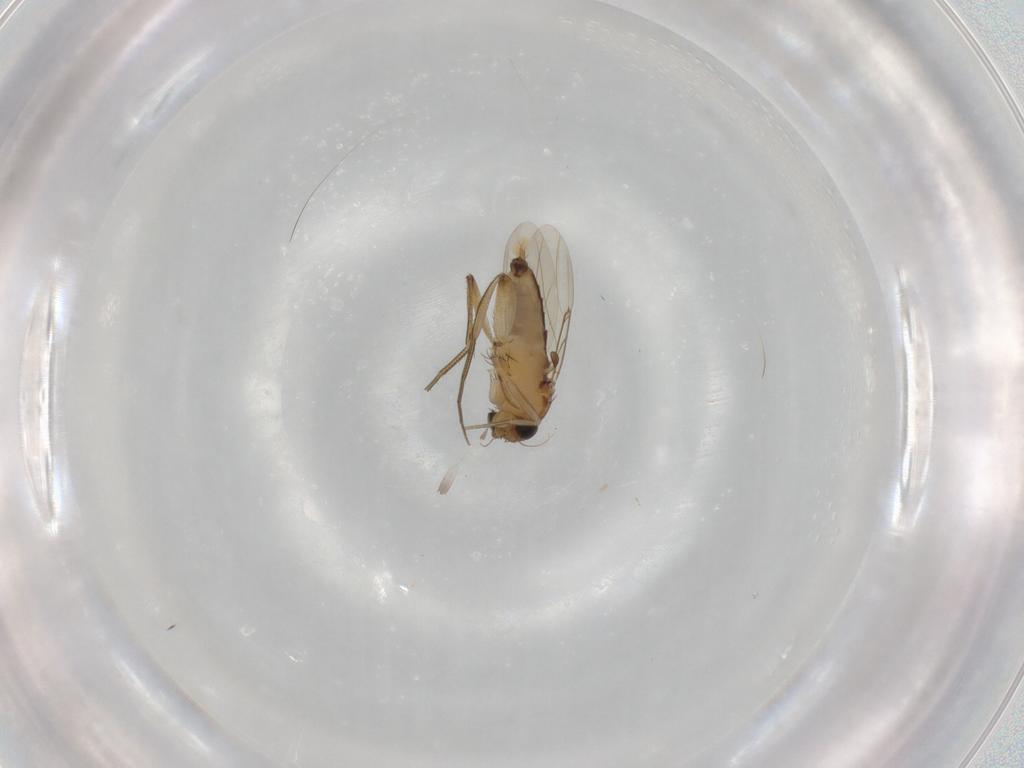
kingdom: Animalia
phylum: Arthropoda
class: Insecta
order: Diptera
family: Phoridae
